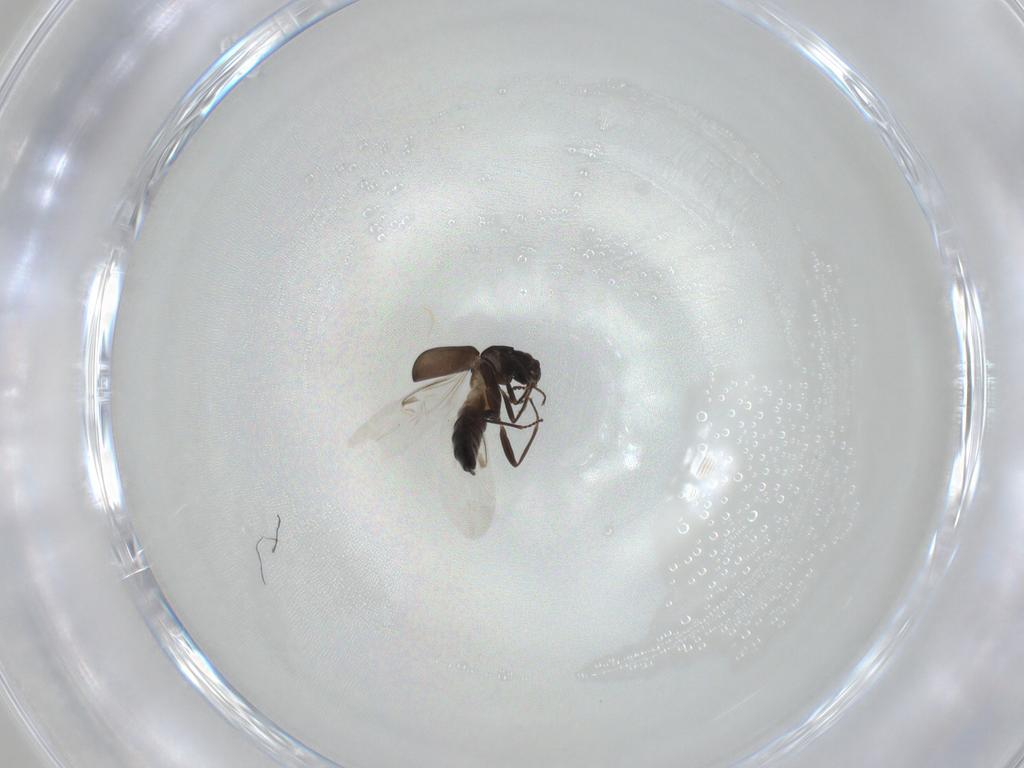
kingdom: Animalia
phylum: Arthropoda
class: Insecta
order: Coleoptera
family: Melyridae
